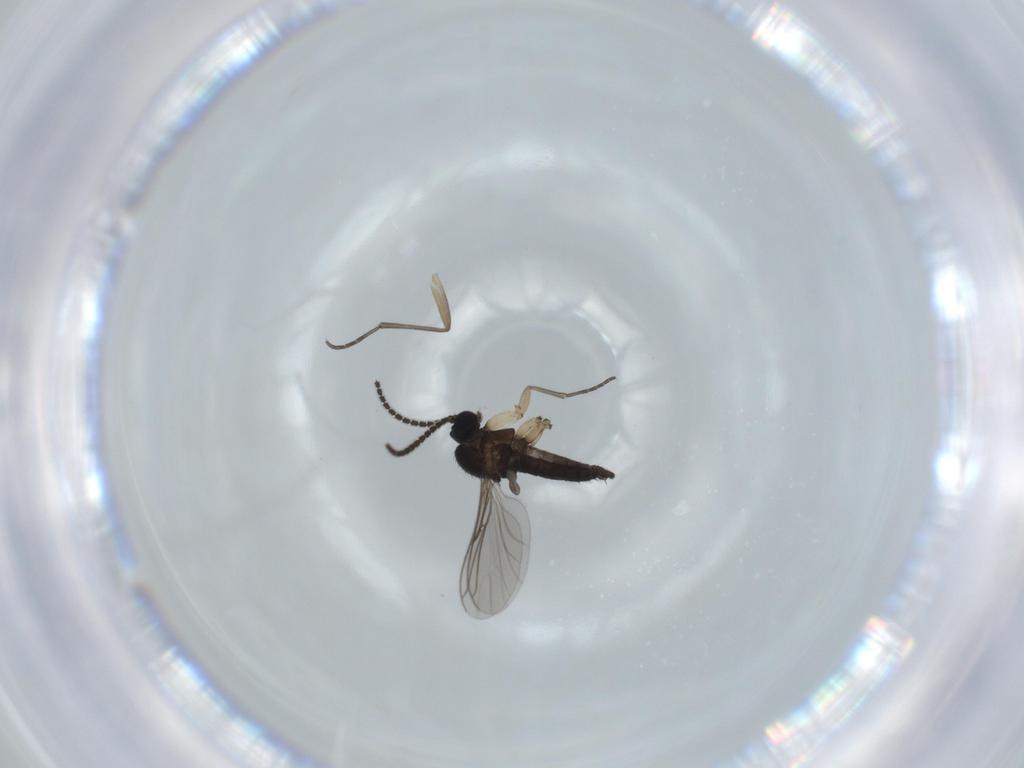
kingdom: Animalia
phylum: Arthropoda
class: Insecta
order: Diptera
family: Sciaridae
